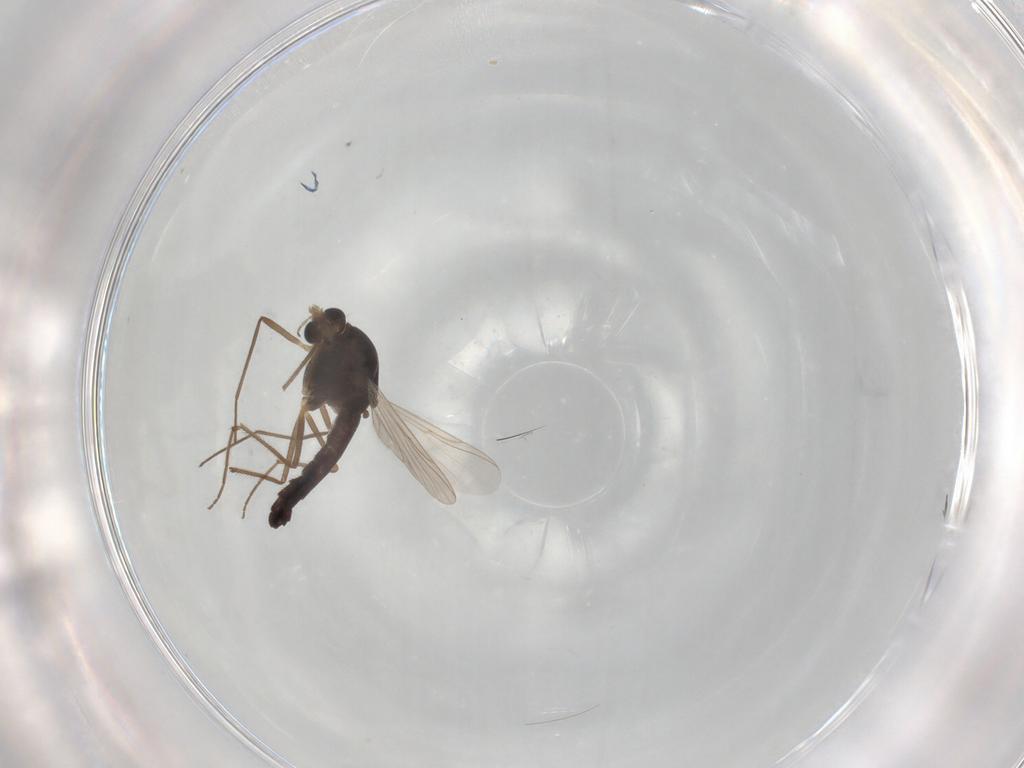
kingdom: Animalia
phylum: Arthropoda
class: Insecta
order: Diptera
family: Chironomidae
